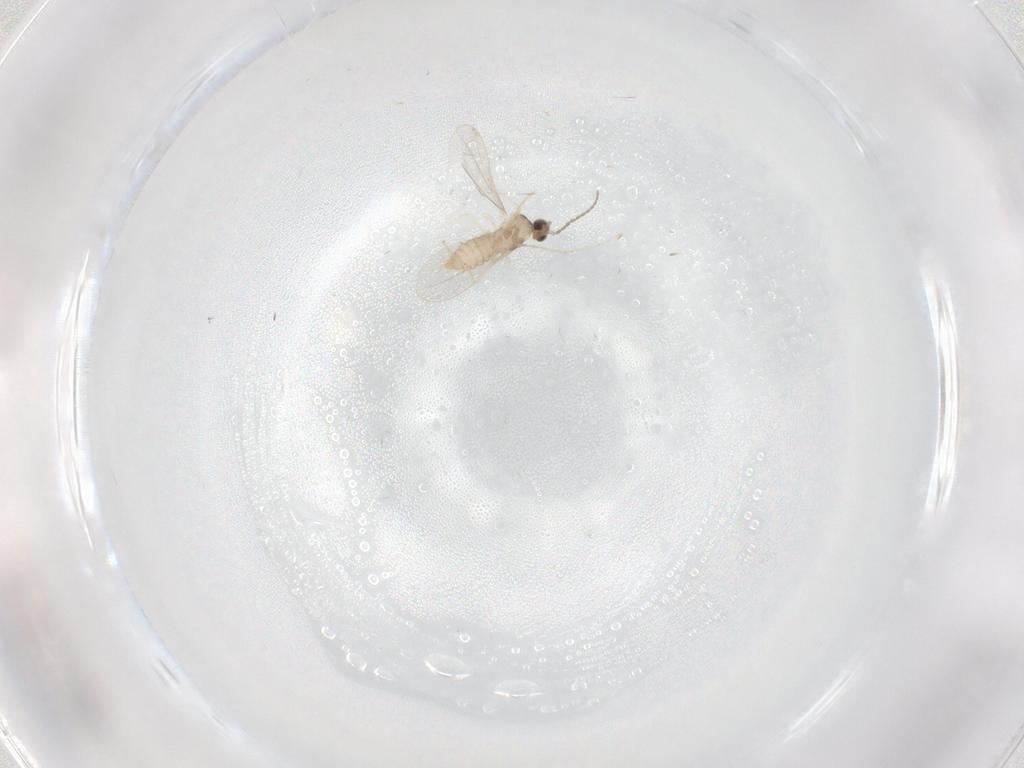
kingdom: Animalia
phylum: Arthropoda
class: Insecta
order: Diptera
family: Cecidomyiidae
